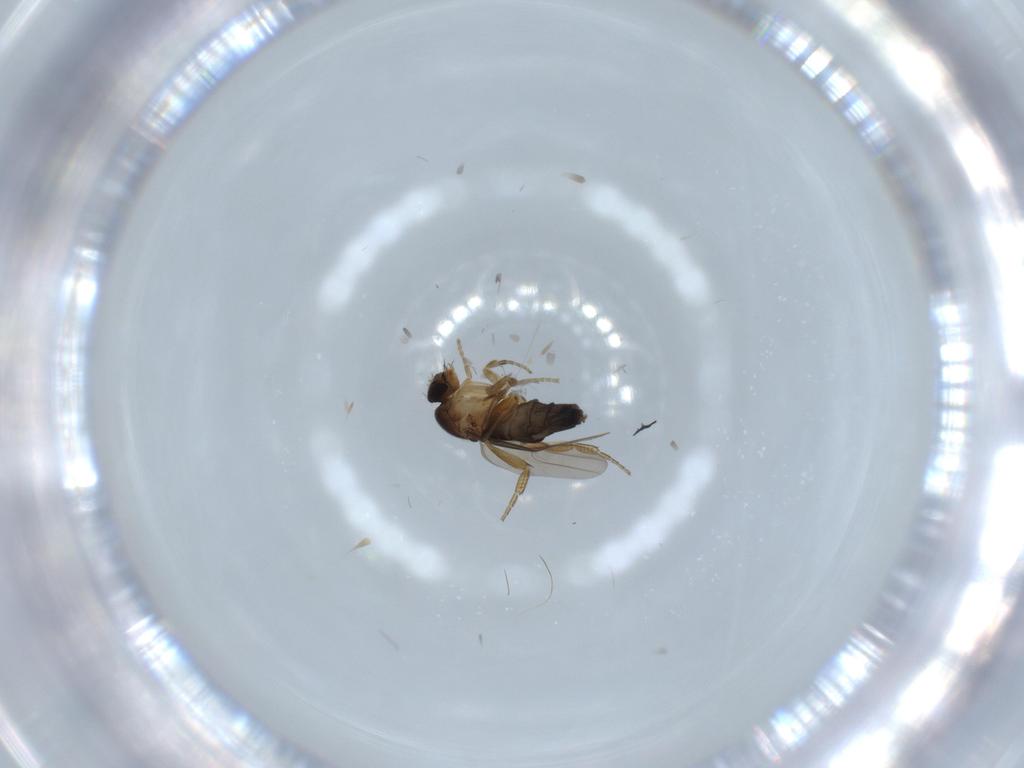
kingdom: Animalia
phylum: Arthropoda
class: Insecta
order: Diptera
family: Phoridae
